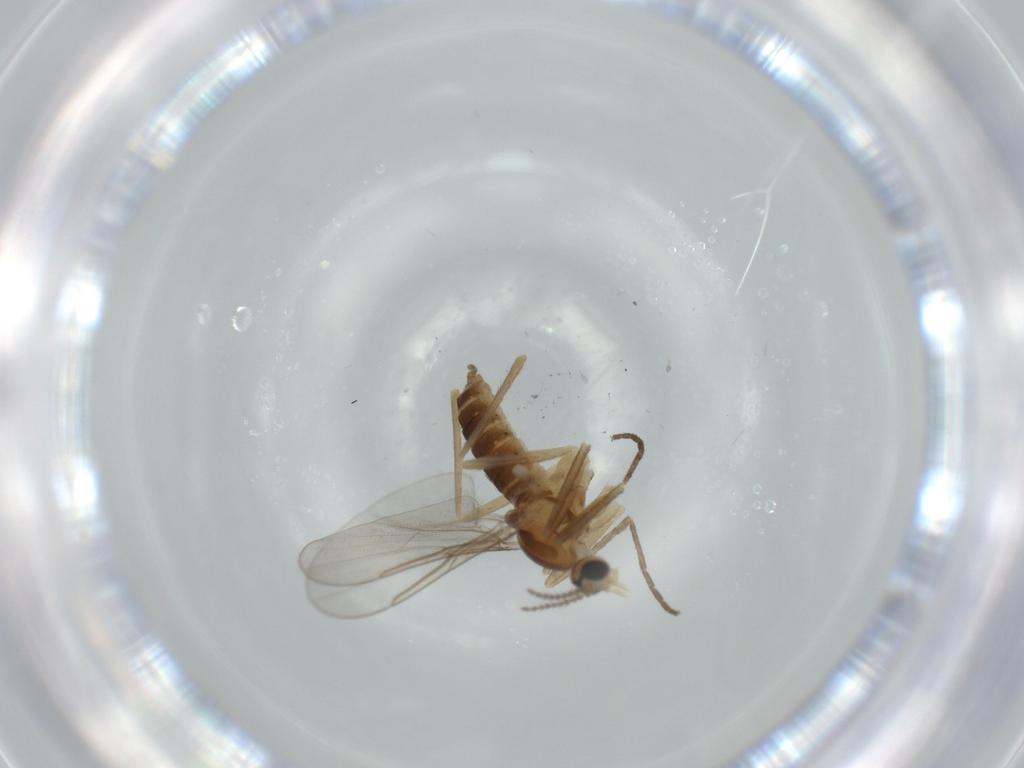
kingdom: Animalia
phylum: Arthropoda
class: Insecta
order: Diptera
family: Cecidomyiidae
